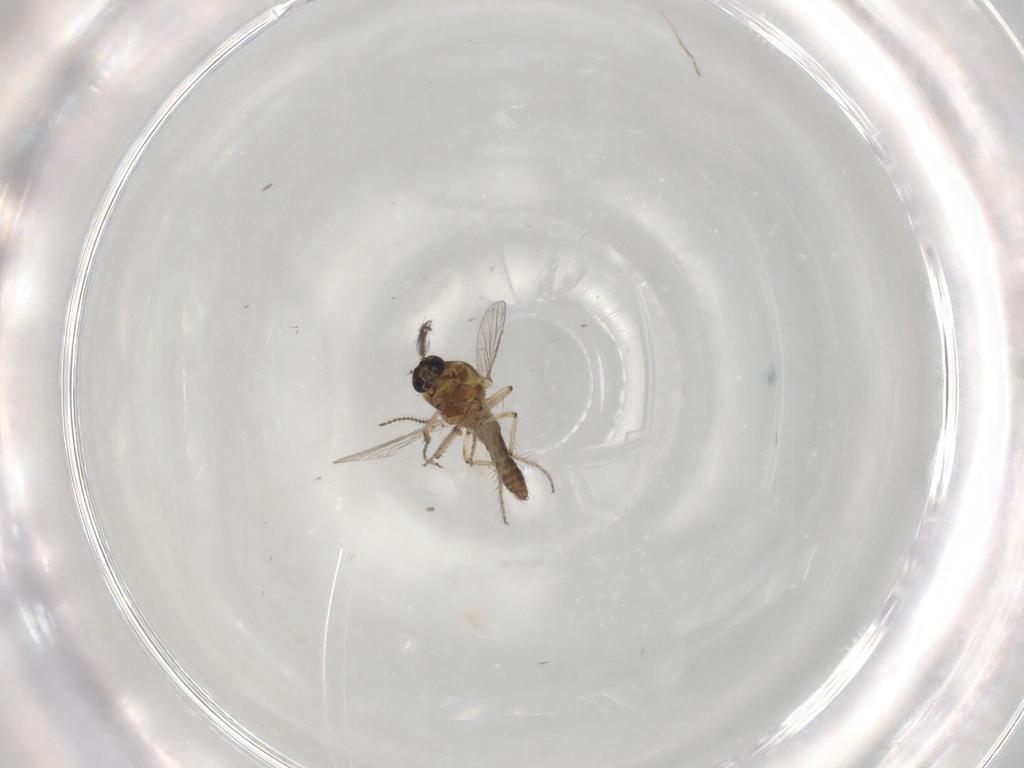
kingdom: Animalia
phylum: Arthropoda
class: Insecta
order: Diptera
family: Ceratopogonidae
